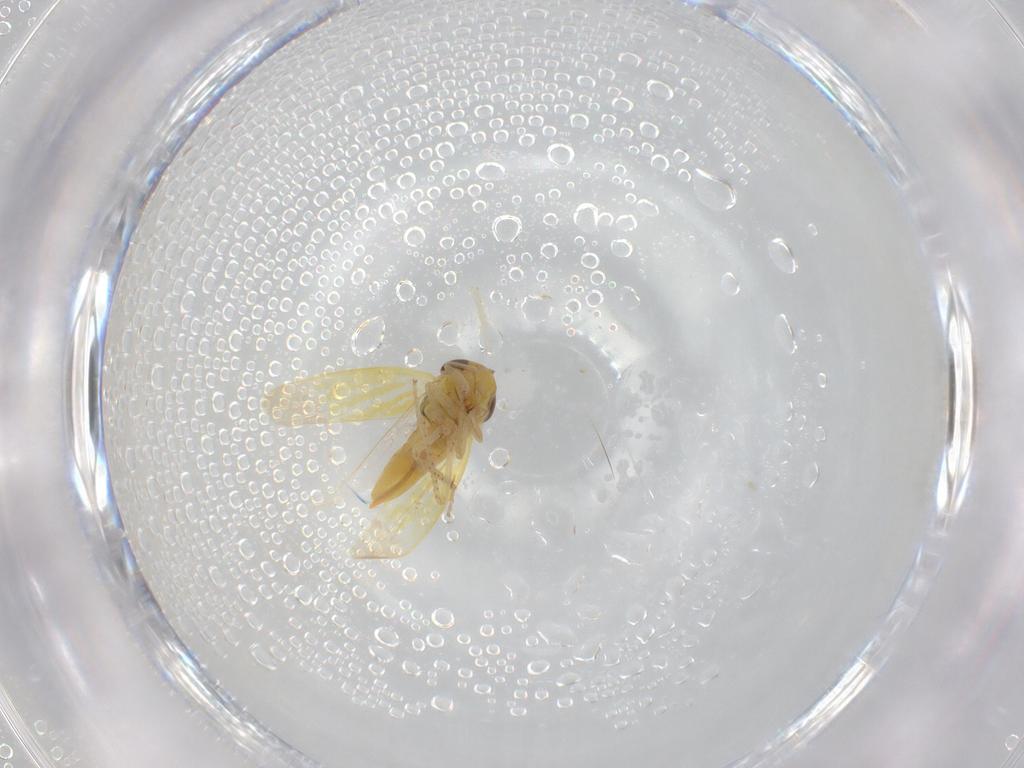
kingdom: Animalia
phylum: Arthropoda
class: Insecta
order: Hemiptera
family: Cicadellidae
